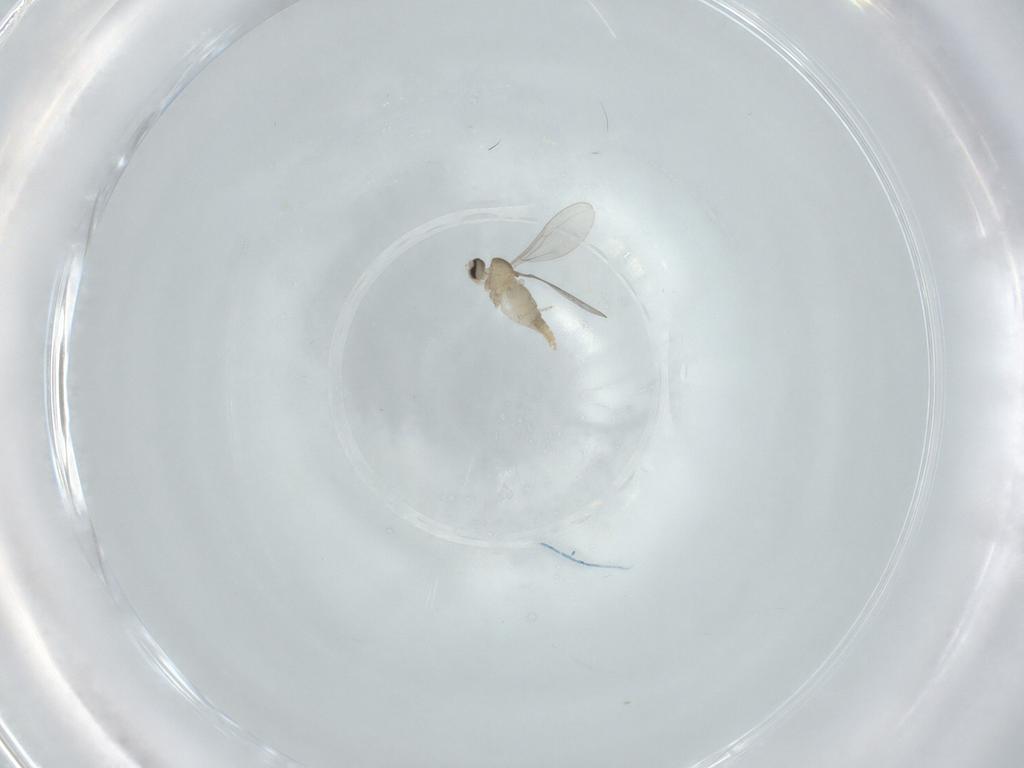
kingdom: Animalia
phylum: Arthropoda
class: Insecta
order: Diptera
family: Cecidomyiidae
